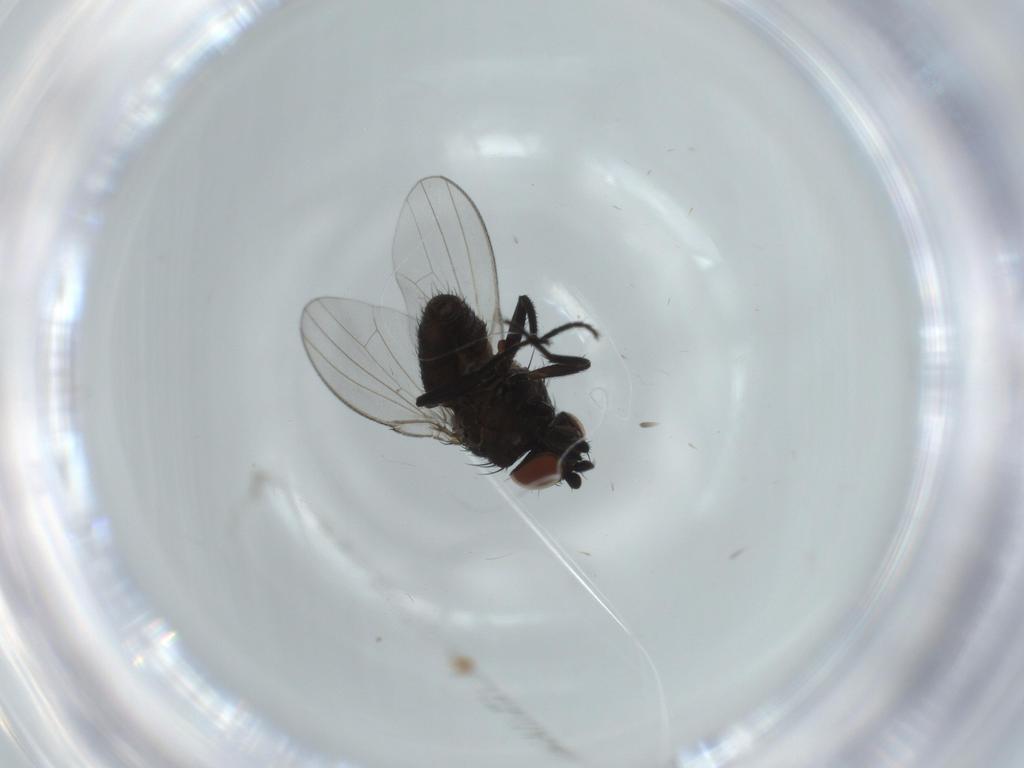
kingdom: Animalia
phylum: Arthropoda
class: Insecta
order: Diptera
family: Milichiidae
